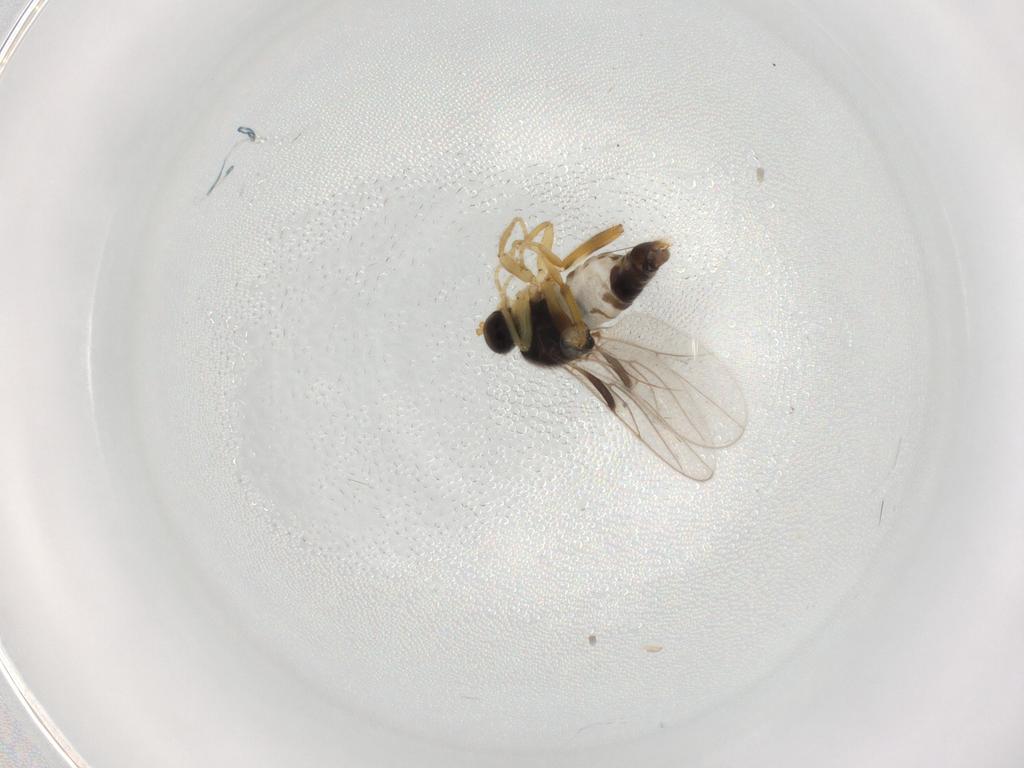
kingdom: Animalia
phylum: Arthropoda
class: Insecta
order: Diptera
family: Hybotidae
